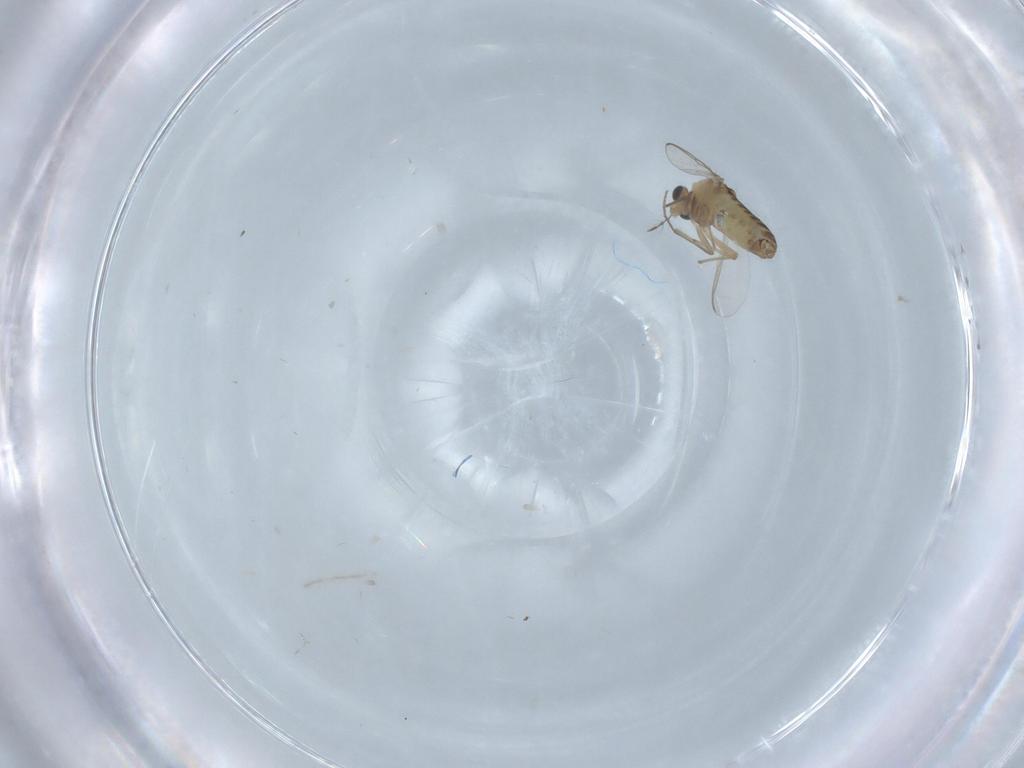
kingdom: Animalia
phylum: Arthropoda
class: Insecta
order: Diptera
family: Chironomidae
